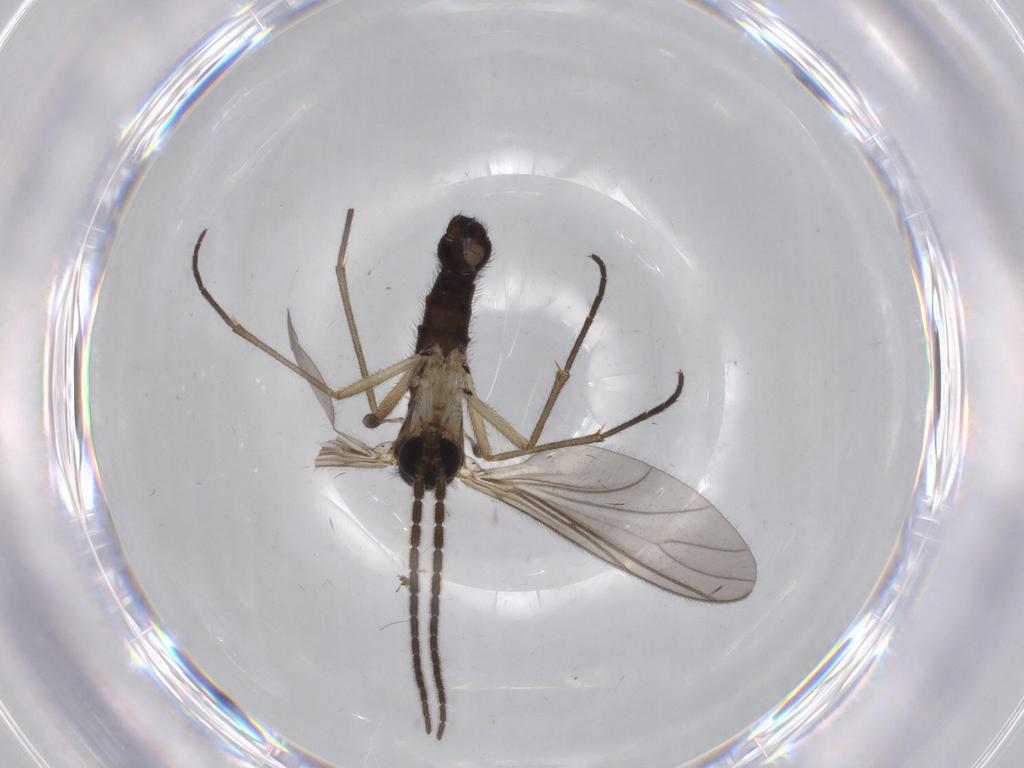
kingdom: Animalia
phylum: Arthropoda
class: Insecta
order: Diptera
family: Sciaridae
